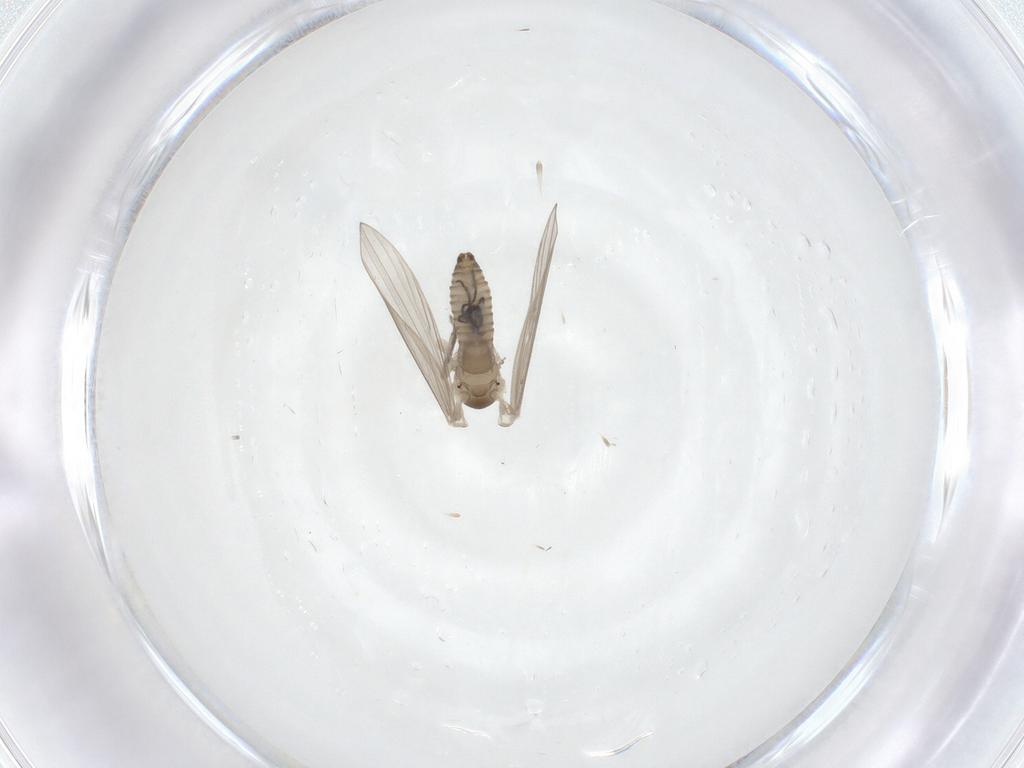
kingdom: Animalia
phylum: Arthropoda
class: Insecta
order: Diptera
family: Psychodidae
